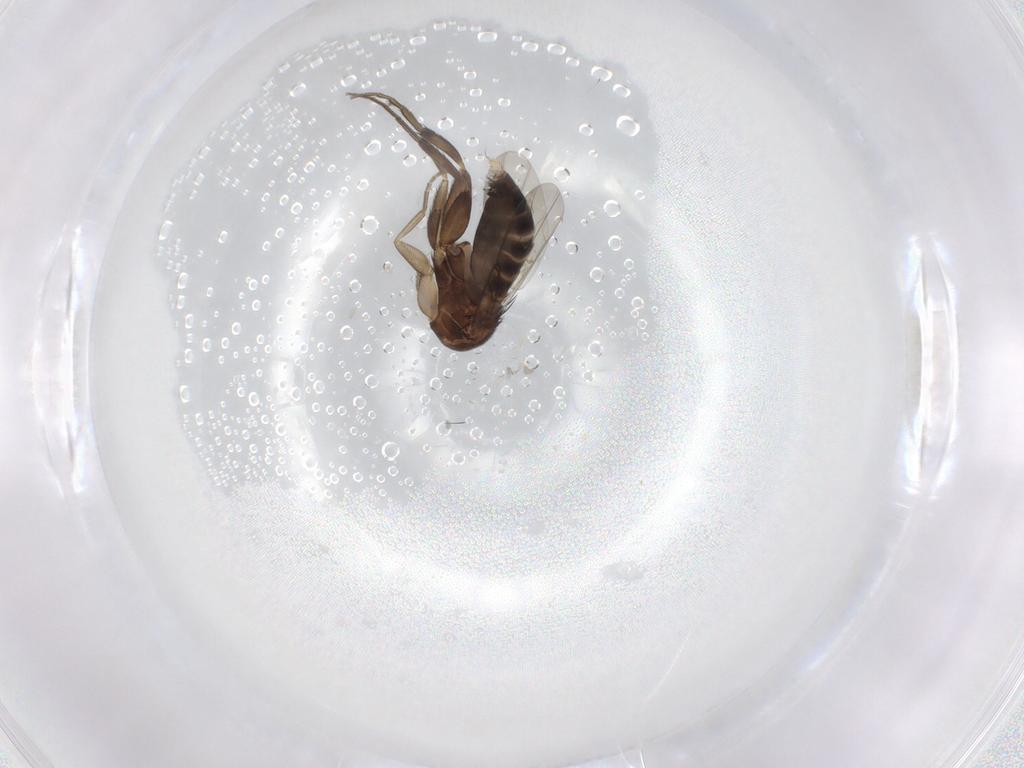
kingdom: Animalia
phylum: Arthropoda
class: Insecta
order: Diptera
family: Phoridae
